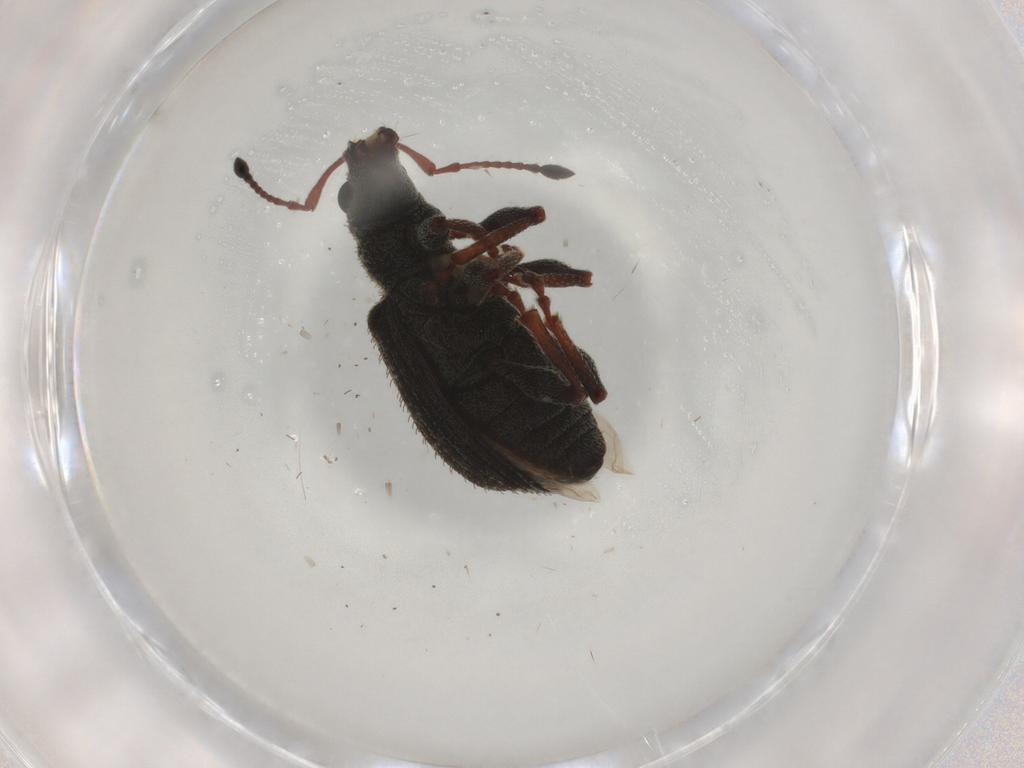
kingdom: Animalia
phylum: Arthropoda
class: Insecta
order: Coleoptera
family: Curculionidae
